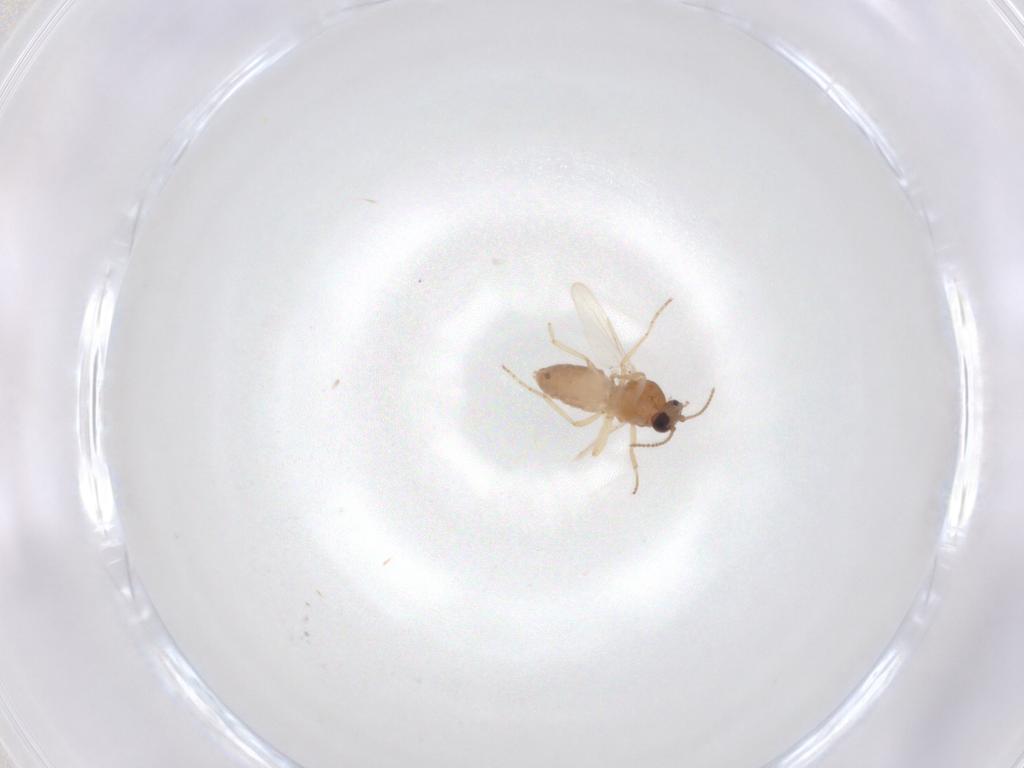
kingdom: Animalia
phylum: Arthropoda
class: Insecta
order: Diptera
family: Ceratopogonidae
